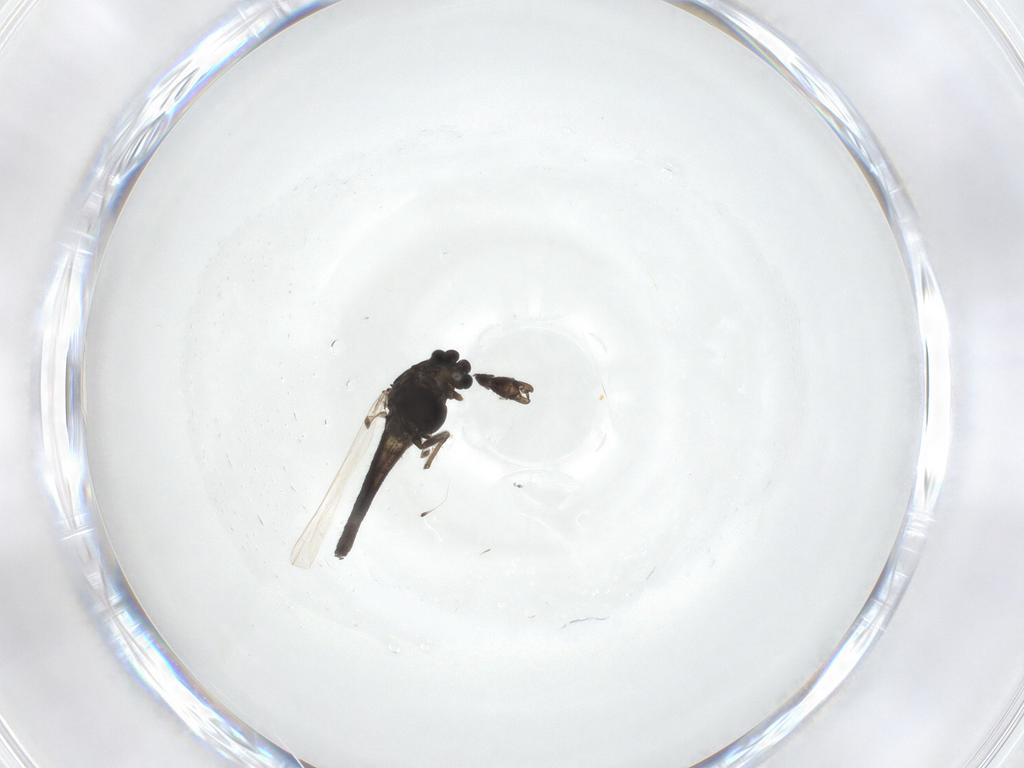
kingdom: Animalia
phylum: Arthropoda
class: Insecta
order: Diptera
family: Chironomidae
